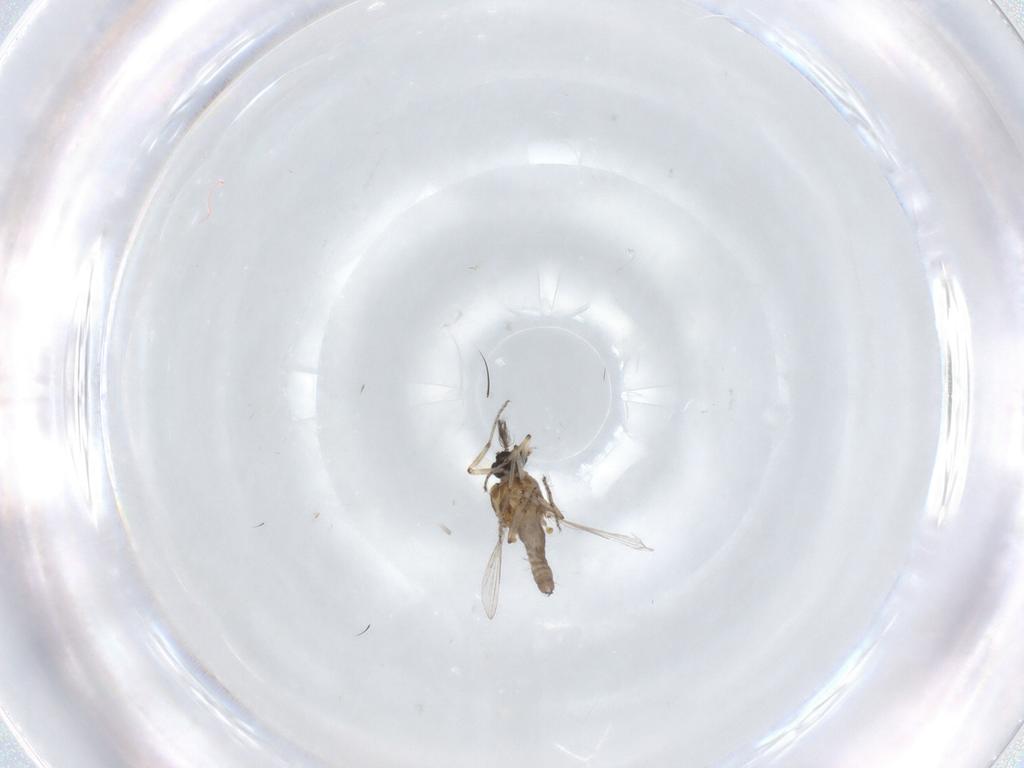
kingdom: Animalia
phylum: Arthropoda
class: Insecta
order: Diptera
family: Ceratopogonidae
